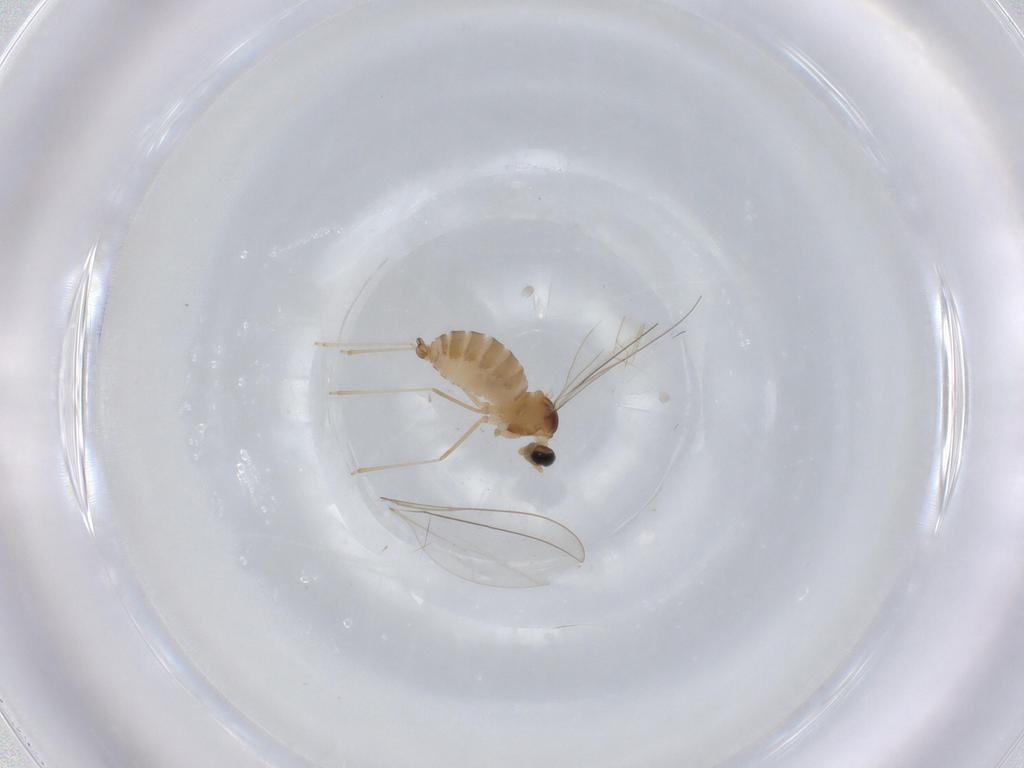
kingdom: Animalia
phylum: Arthropoda
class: Insecta
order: Diptera
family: Cecidomyiidae
